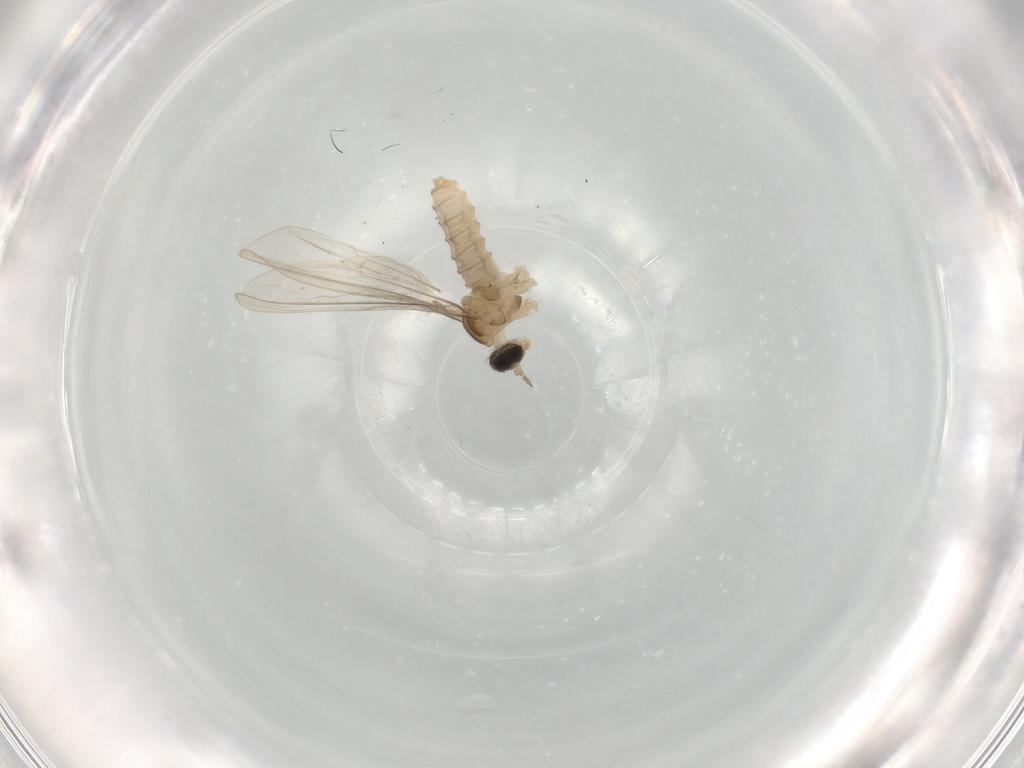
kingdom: Animalia
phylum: Arthropoda
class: Insecta
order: Diptera
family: Cecidomyiidae
